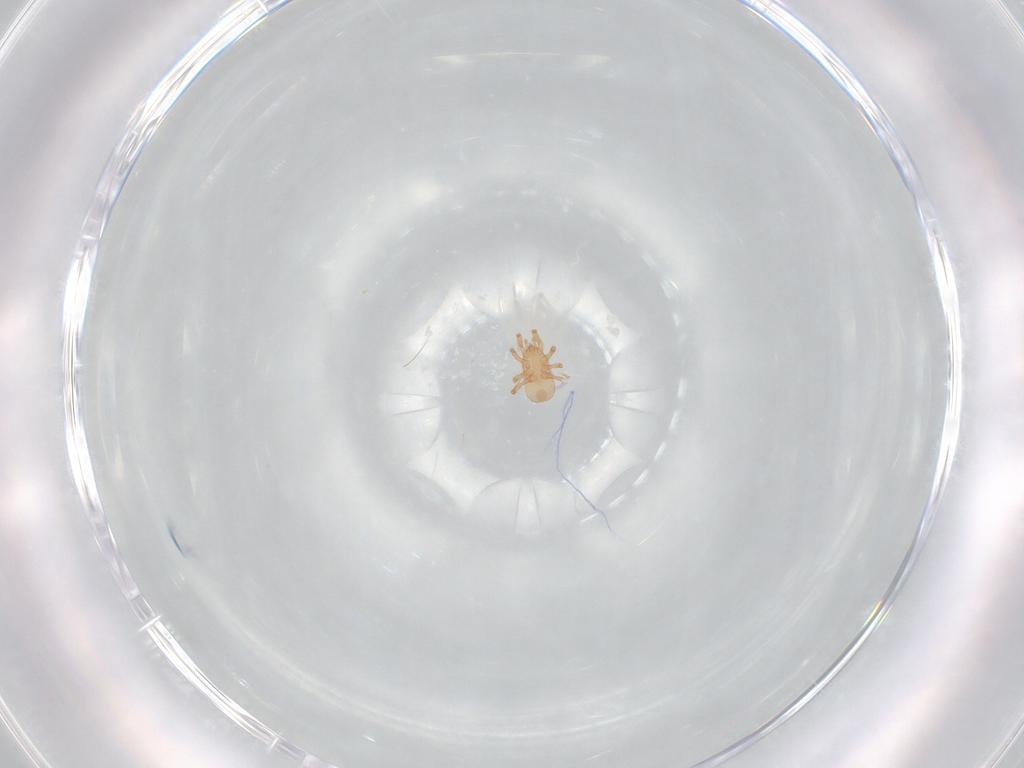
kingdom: Animalia
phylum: Arthropoda
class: Arachnida
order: Mesostigmata
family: Ascidae
